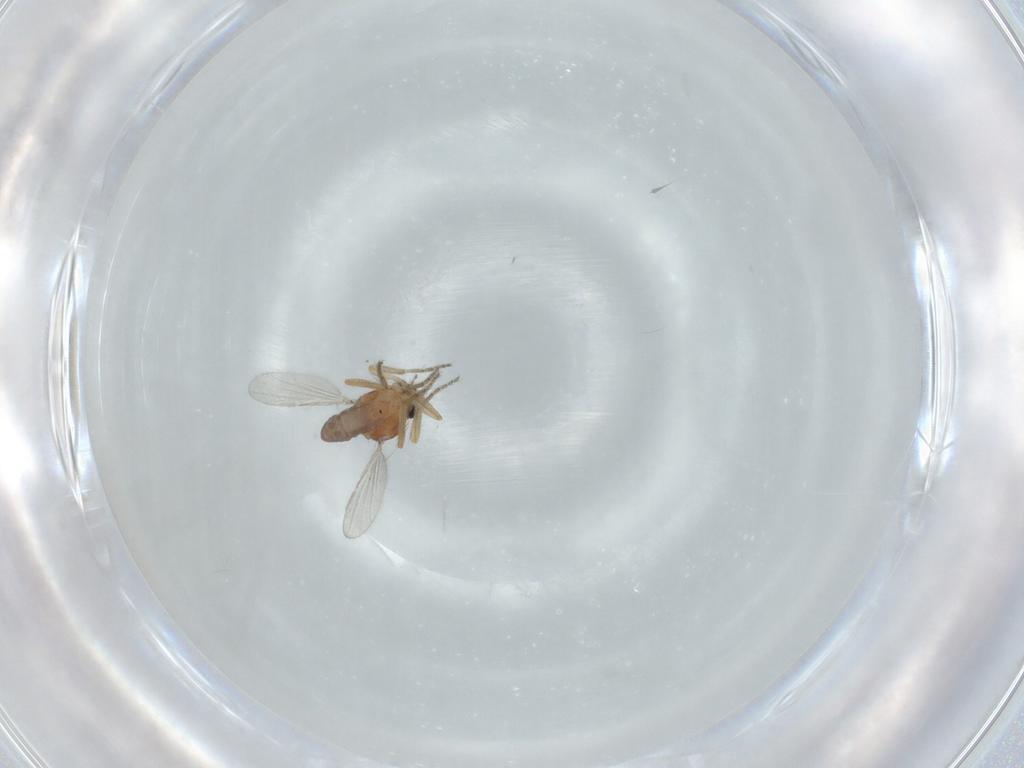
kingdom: Animalia
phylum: Arthropoda
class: Insecta
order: Diptera
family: Ceratopogonidae
